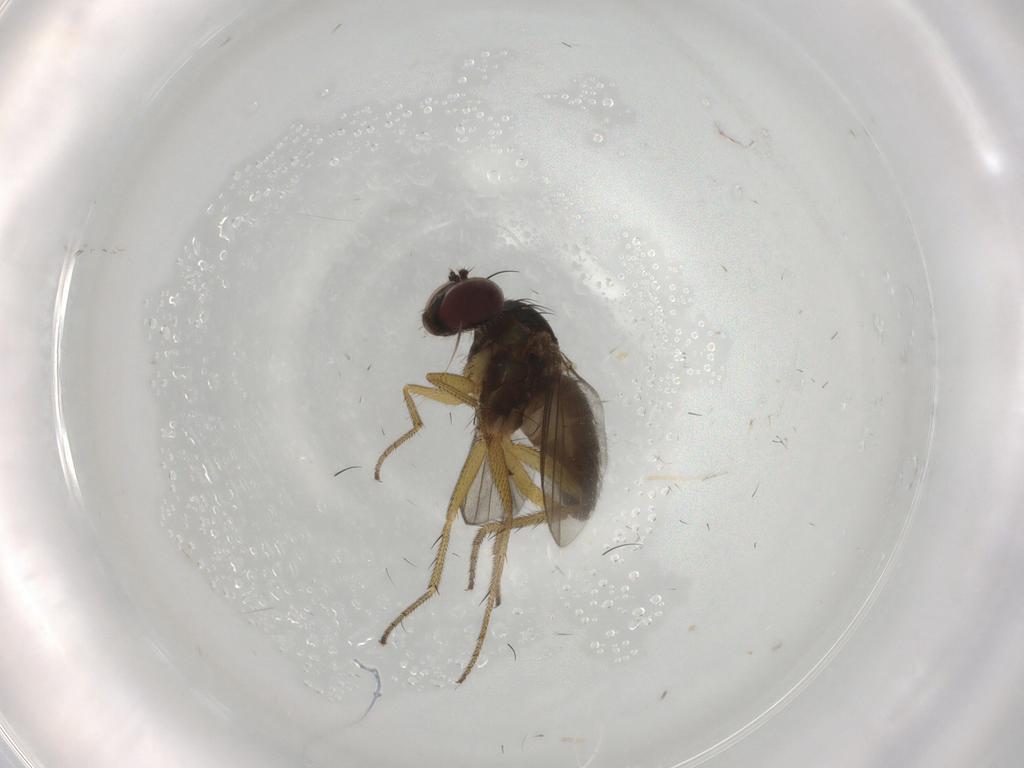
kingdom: Animalia
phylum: Arthropoda
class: Insecta
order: Diptera
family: Dolichopodidae
